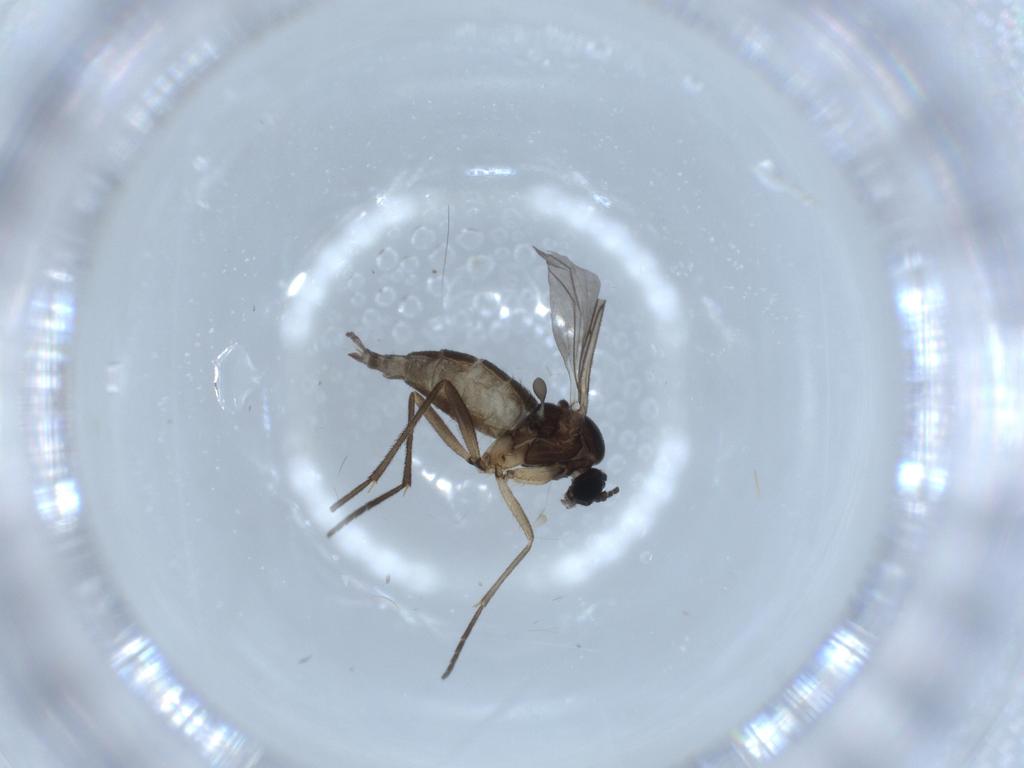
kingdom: Animalia
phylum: Arthropoda
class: Insecta
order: Diptera
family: Sciaridae
